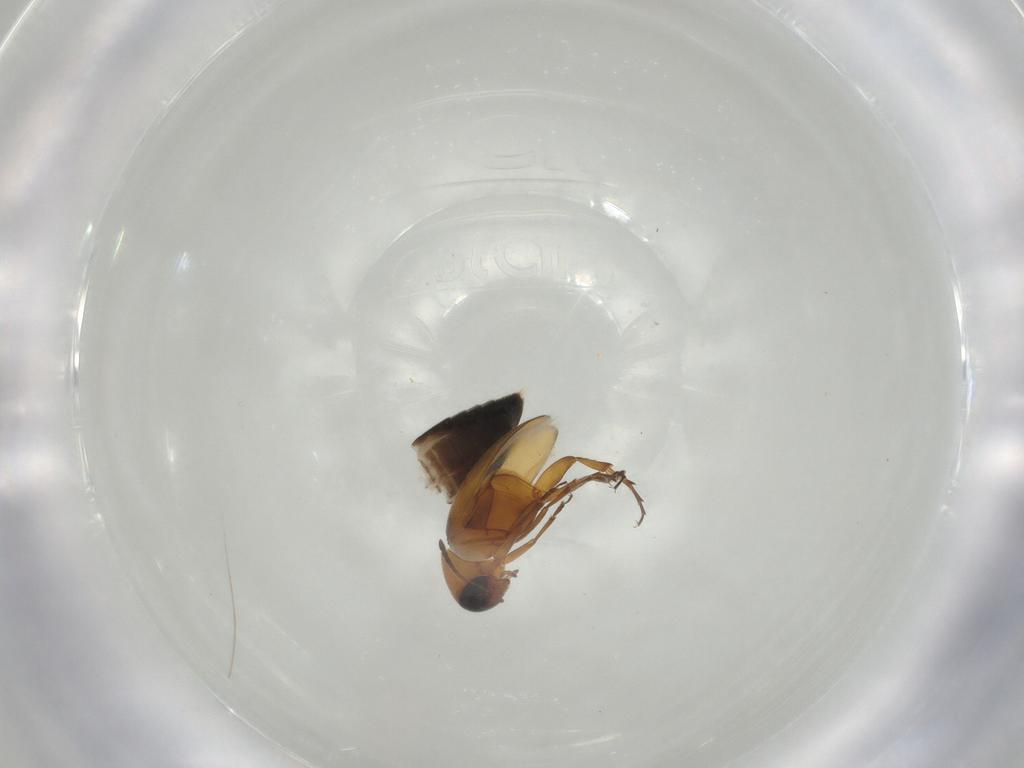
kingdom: Animalia
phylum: Arthropoda
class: Insecta
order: Coleoptera
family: Scraptiidae
